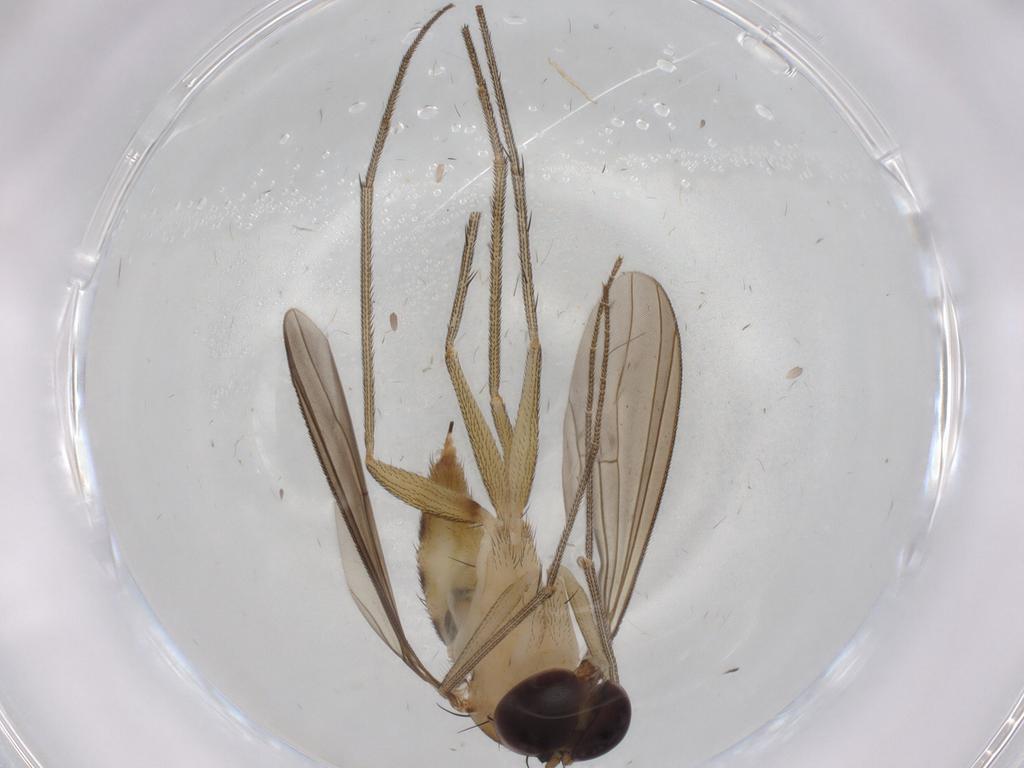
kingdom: Animalia
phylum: Arthropoda
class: Insecta
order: Diptera
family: Dolichopodidae
